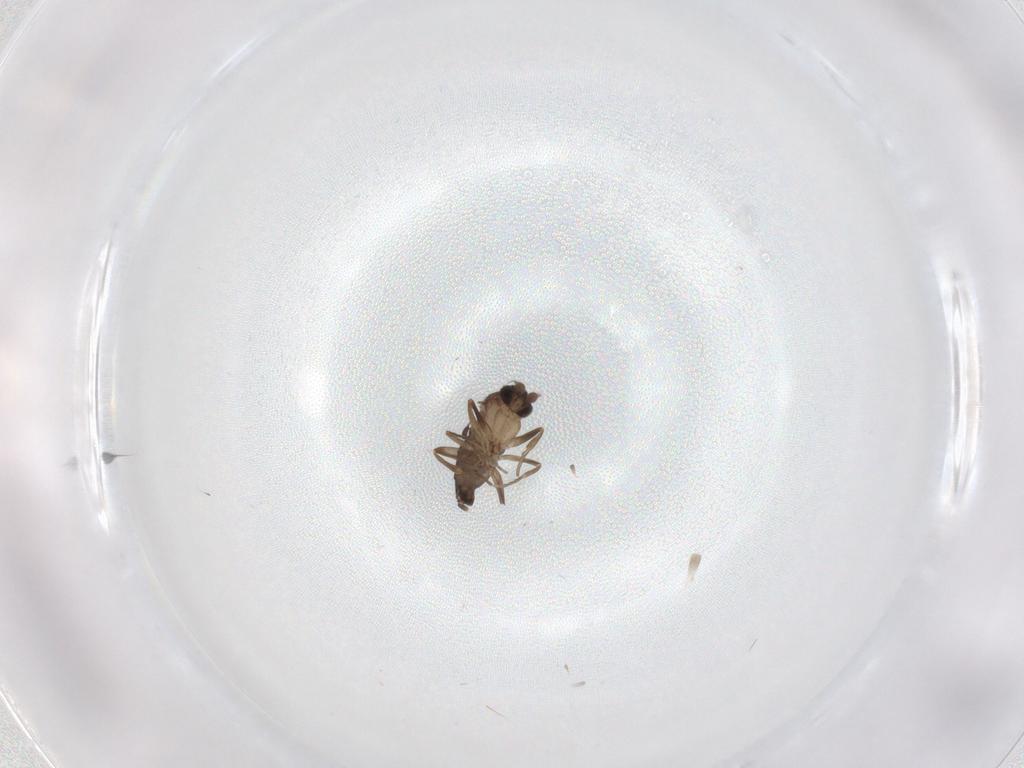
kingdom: Animalia
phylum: Arthropoda
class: Insecta
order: Diptera
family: Phoridae
